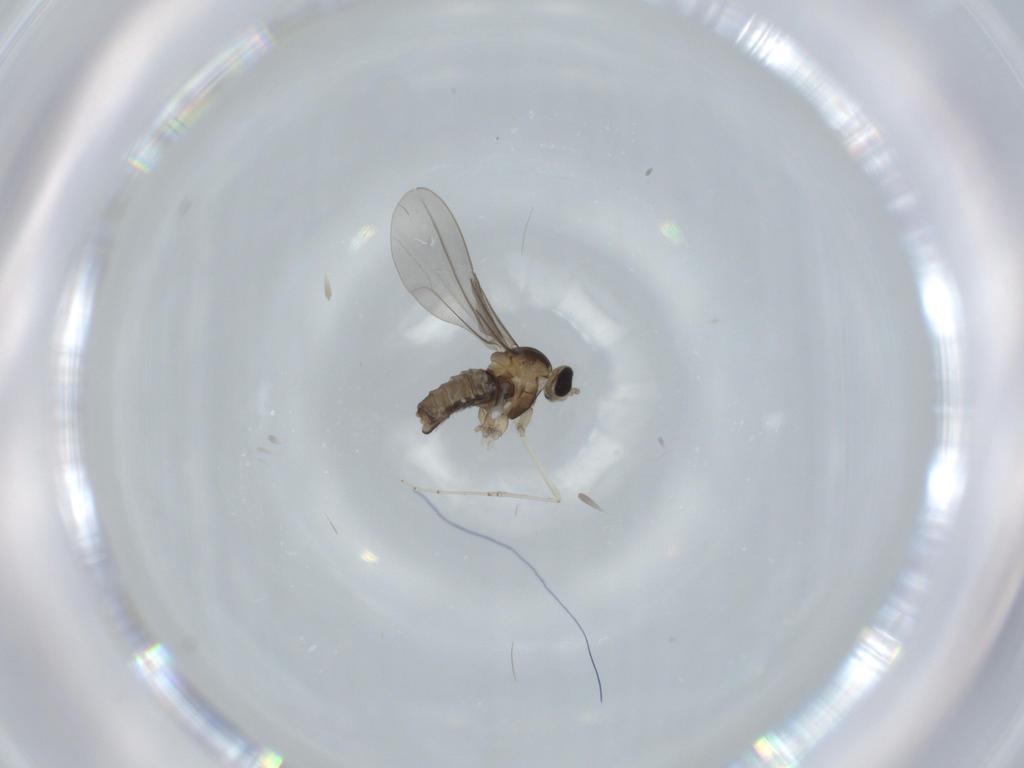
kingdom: Animalia
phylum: Arthropoda
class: Insecta
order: Diptera
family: Cecidomyiidae
